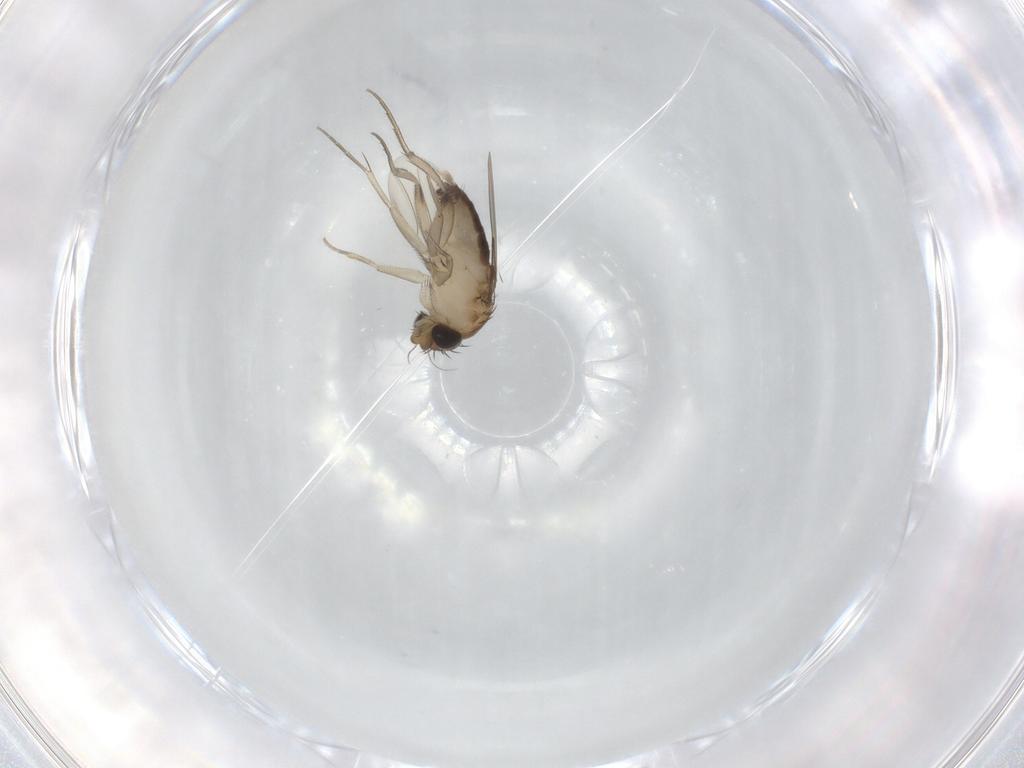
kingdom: Animalia
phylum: Arthropoda
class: Insecta
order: Diptera
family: Phoridae
